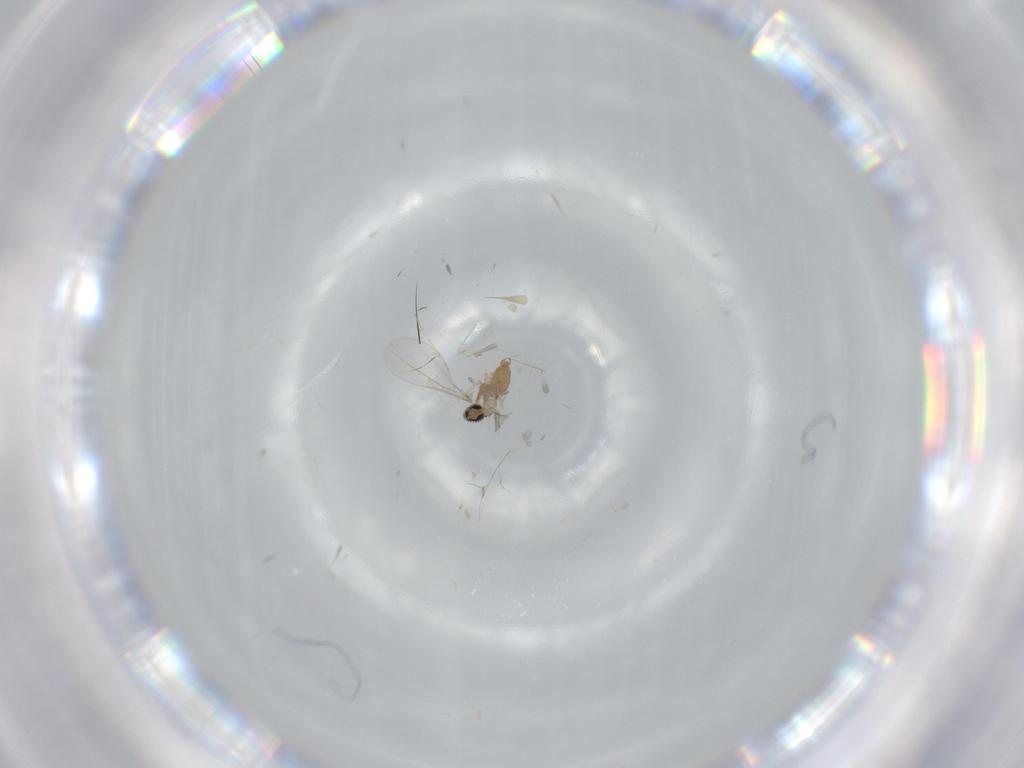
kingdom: Animalia
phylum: Arthropoda
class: Insecta
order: Diptera
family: Cecidomyiidae
